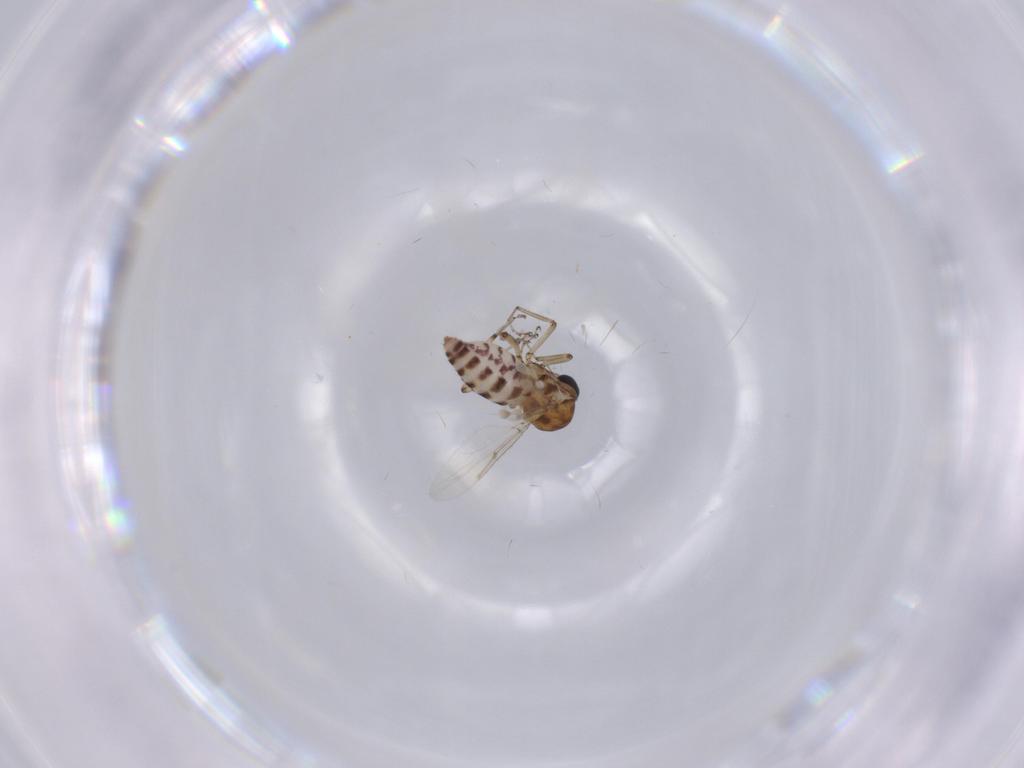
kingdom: Animalia
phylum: Arthropoda
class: Insecta
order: Diptera
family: Ceratopogonidae
